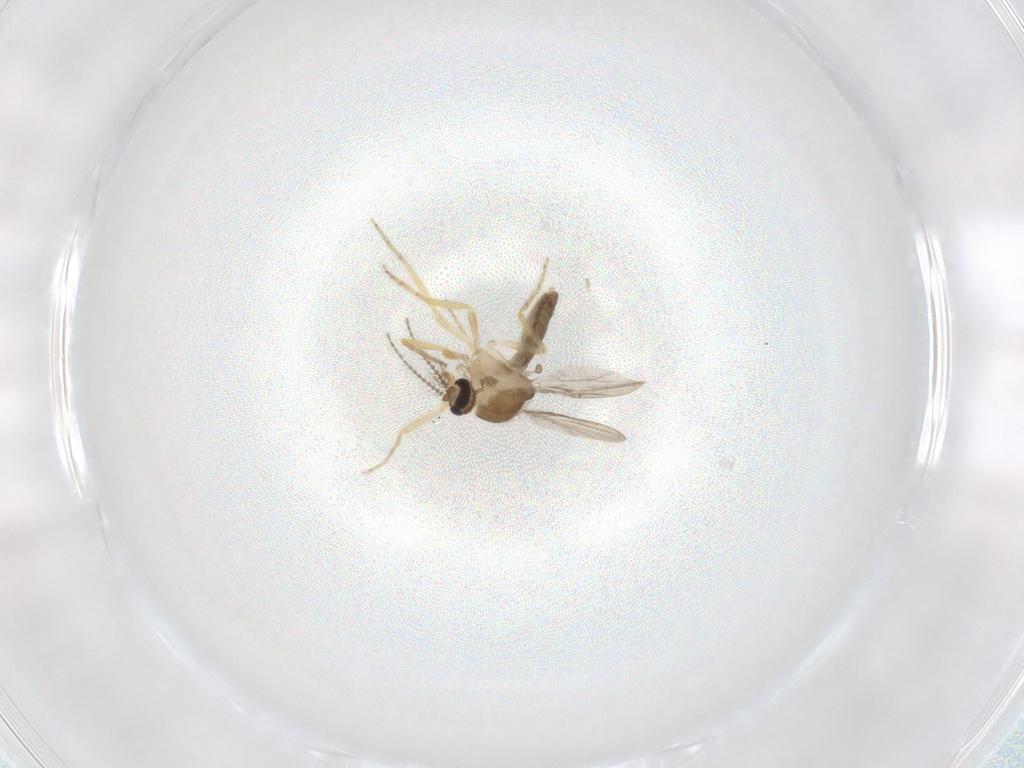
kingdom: Animalia
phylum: Arthropoda
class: Insecta
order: Diptera
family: Ceratopogonidae
